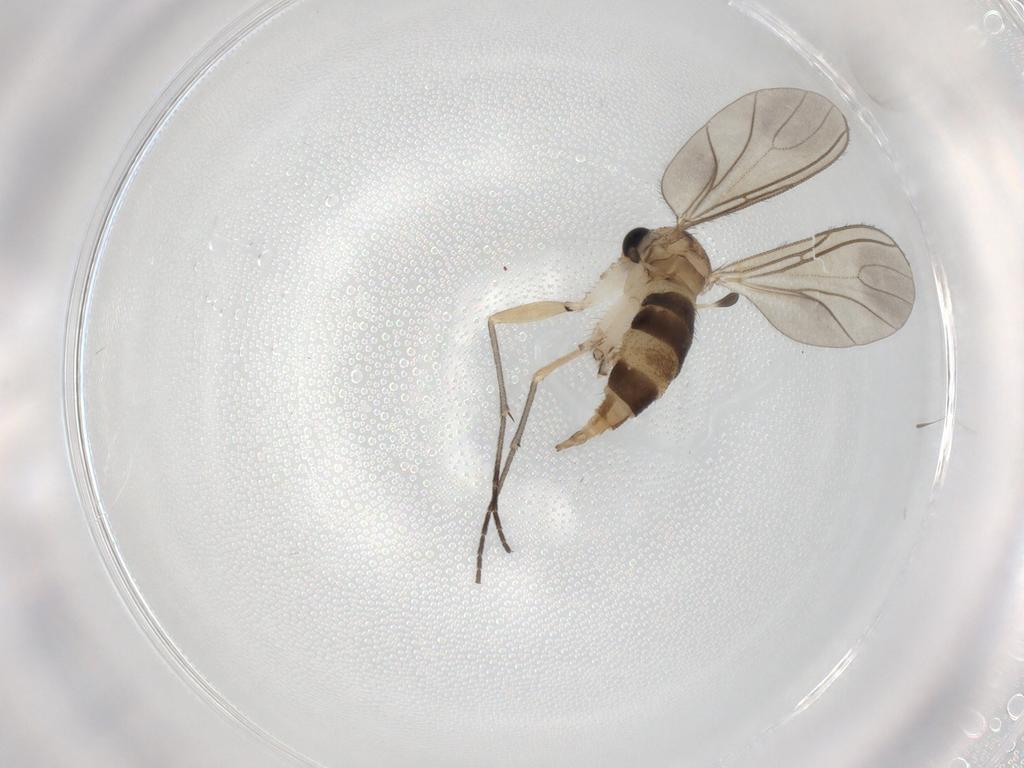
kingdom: Animalia
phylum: Arthropoda
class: Insecta
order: Diptera
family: Sciaridae
